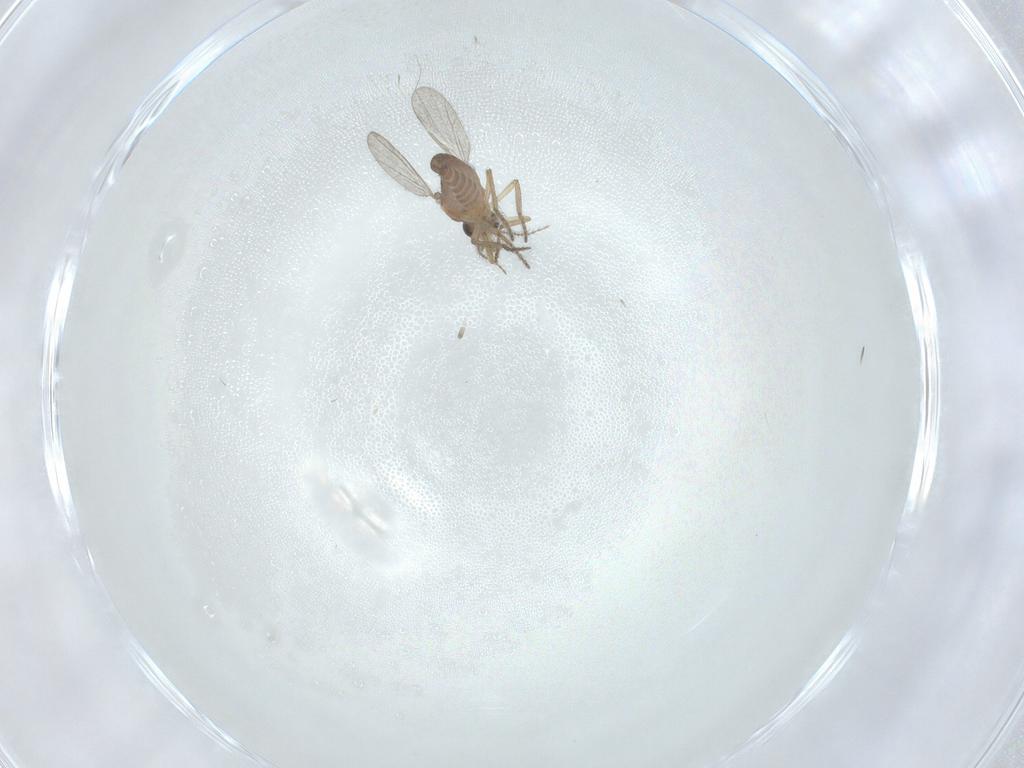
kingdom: Animalia
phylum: Arthropoda
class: Insecta
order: Diptera
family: Ceratopogonidae
